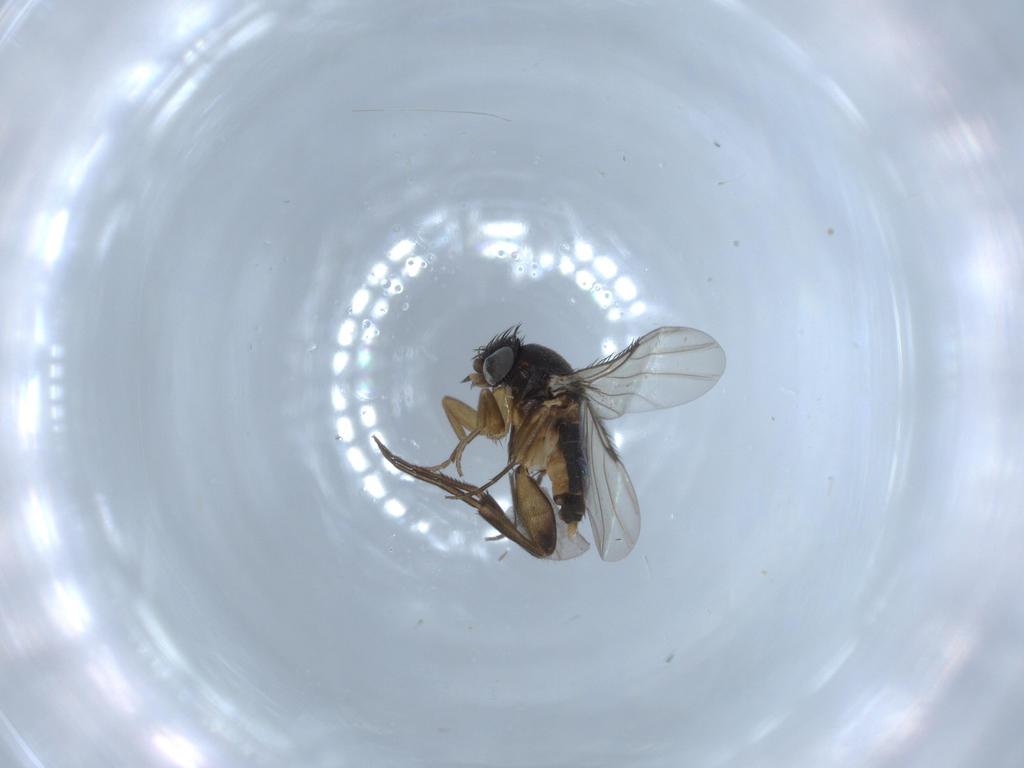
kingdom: Animalia
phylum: Arthropoda
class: Insecta
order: Diptera
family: Phoridae
